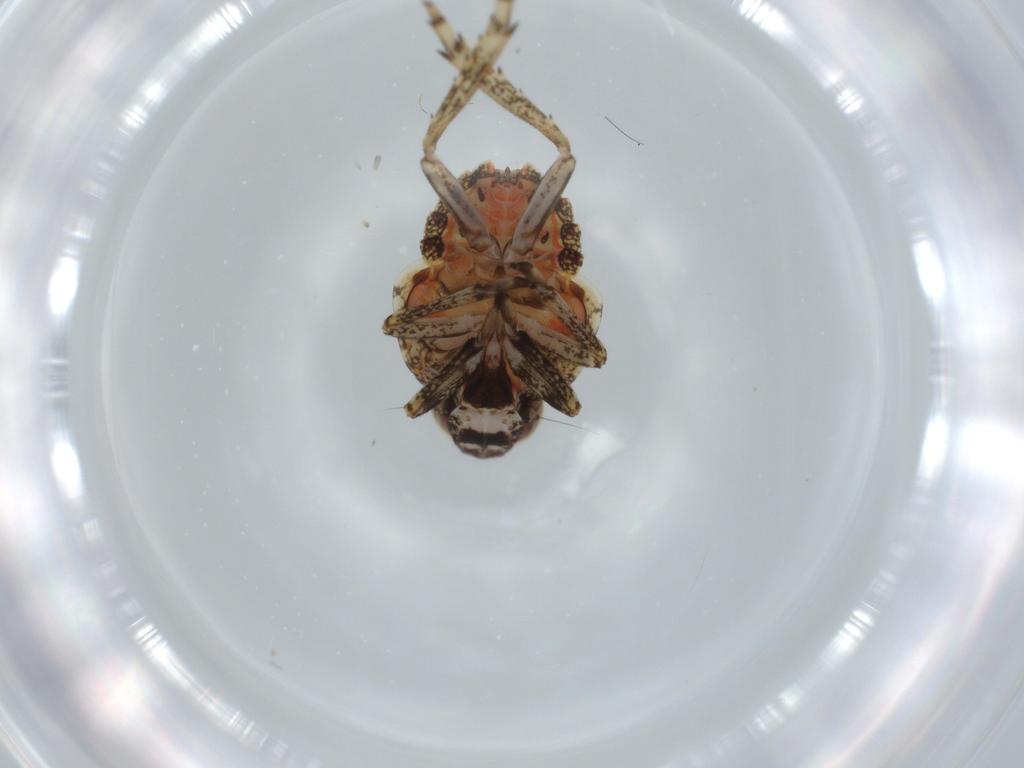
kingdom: Animalia
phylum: Arthropoda
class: Insecta
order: Hemiptera
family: Issidae
